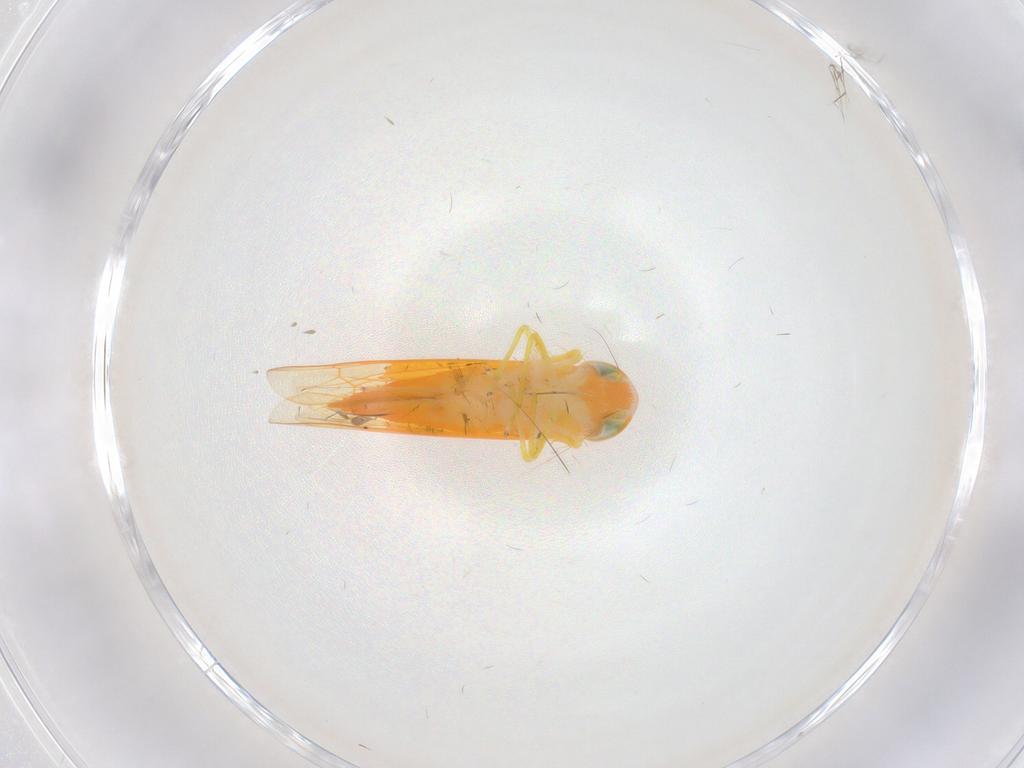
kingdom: Animalia
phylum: Arthropoda
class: Insecta
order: Hemiptera
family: Cicadellidae
